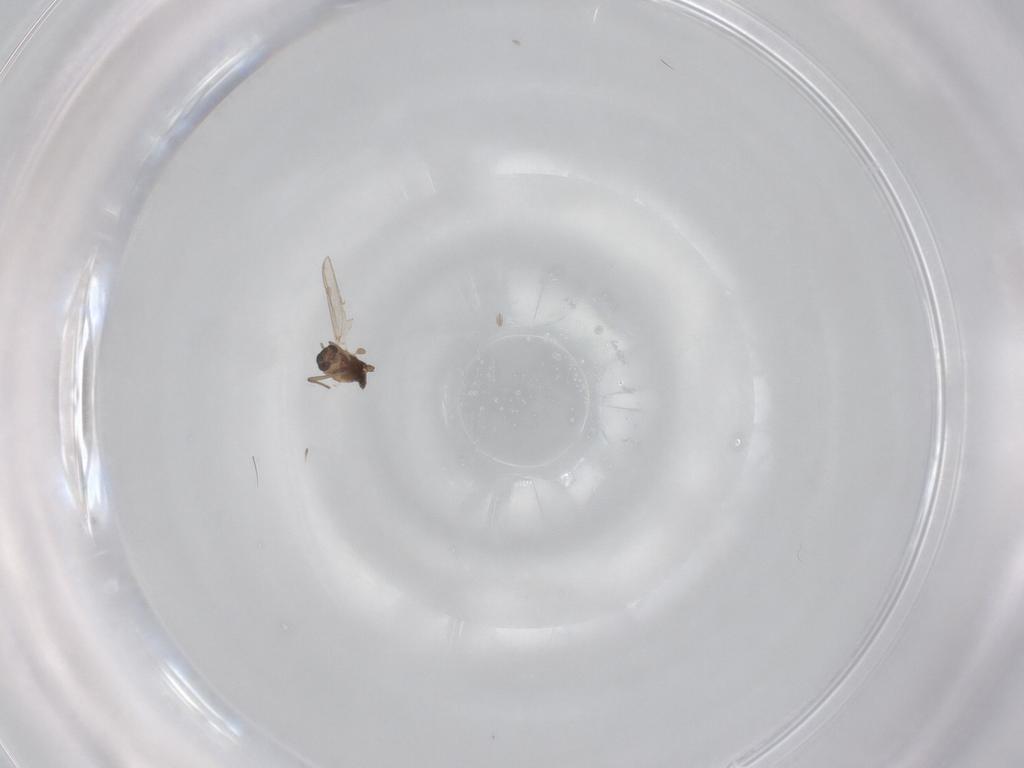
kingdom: Animalia
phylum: Arthropoda
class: Insecta
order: Diptera
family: Chironomidae
